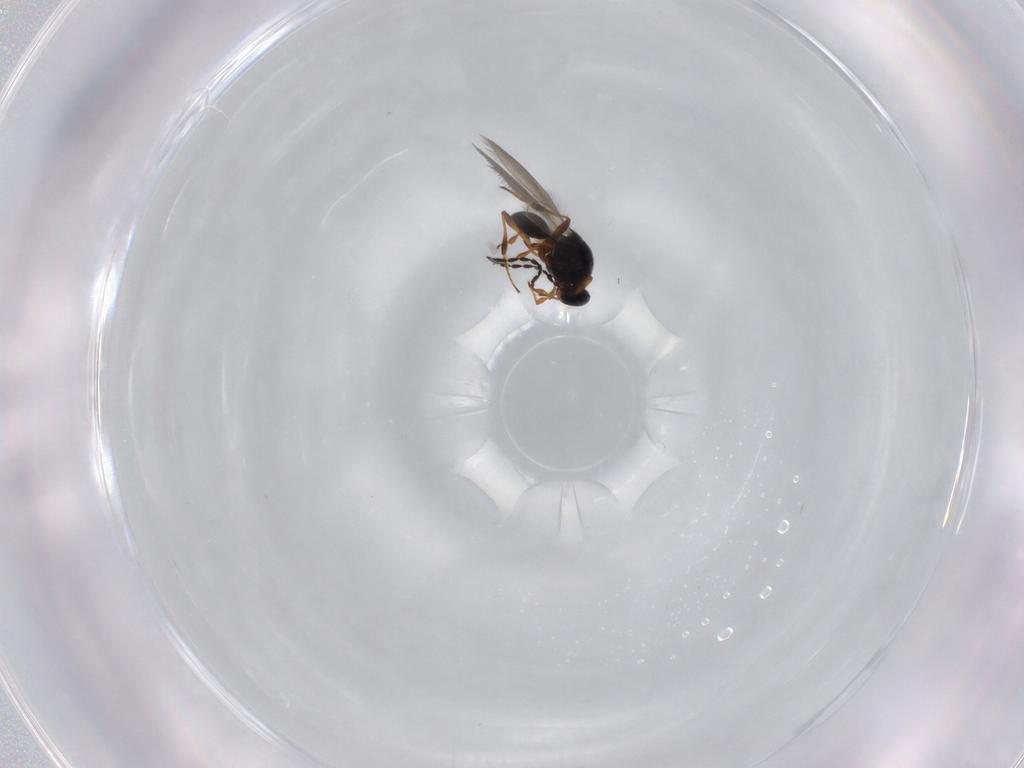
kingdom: Animalia
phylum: Arthropoda
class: Insecta
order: Hymenoptera
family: Platygastridae
